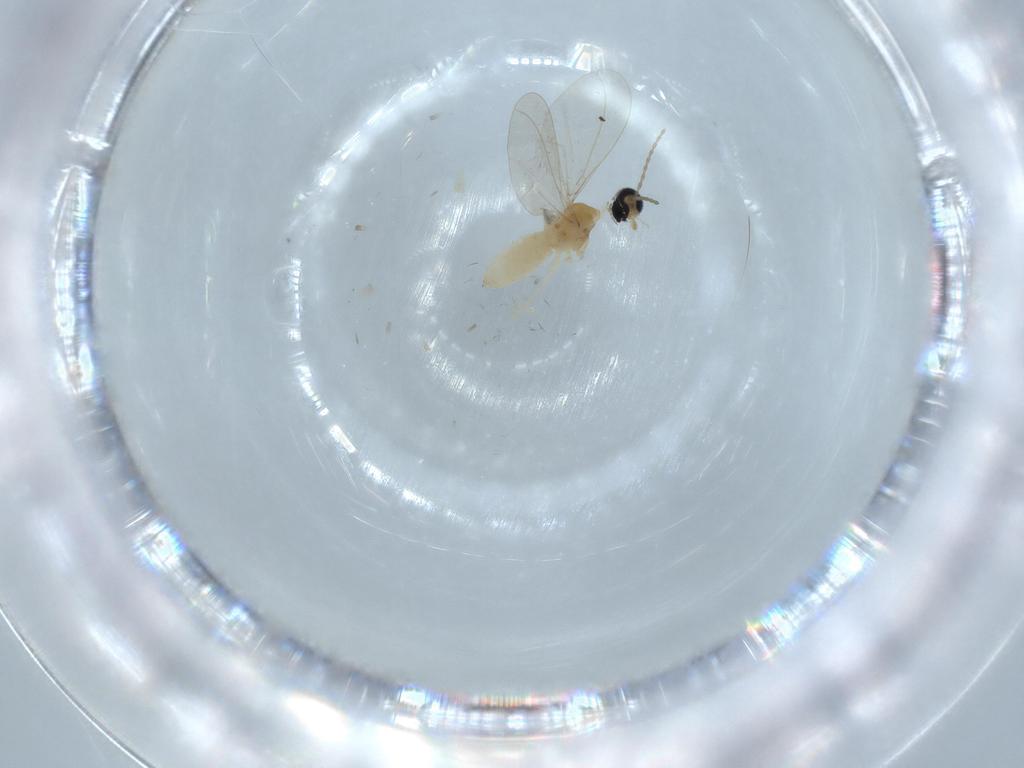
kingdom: Animalia
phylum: Arthropoda
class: Insecta
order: Diptera
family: Cecidomyiidae
